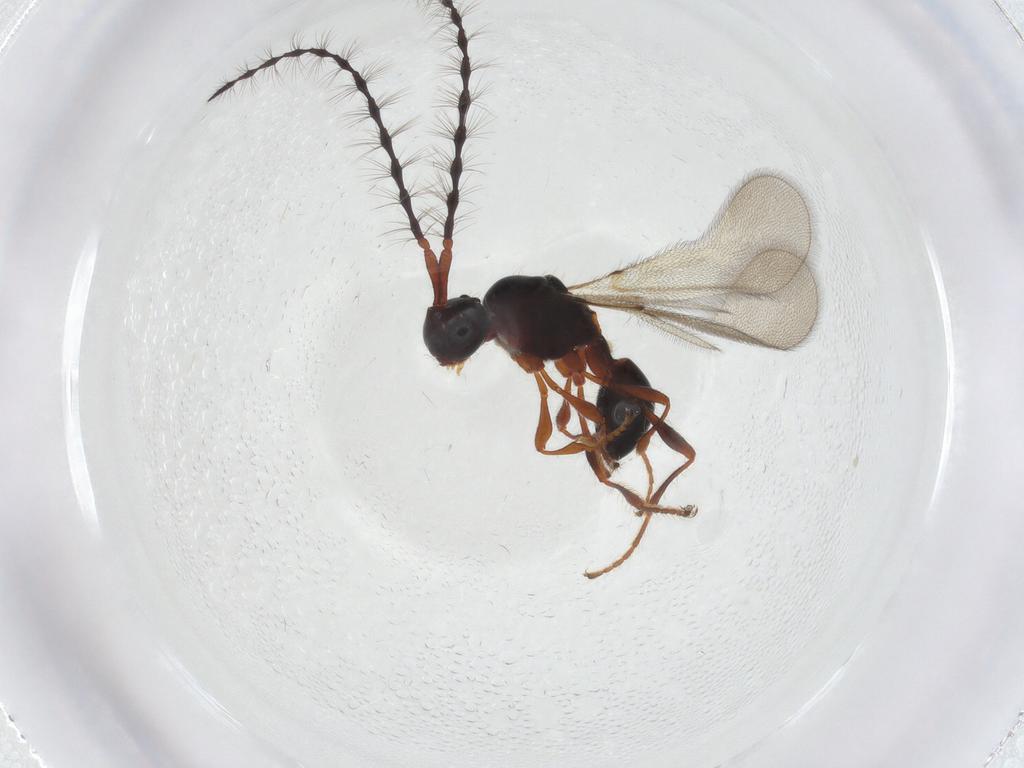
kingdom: Animalia
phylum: Arthropoda
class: Insecta
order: Hymenoptera
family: Diapriidae
